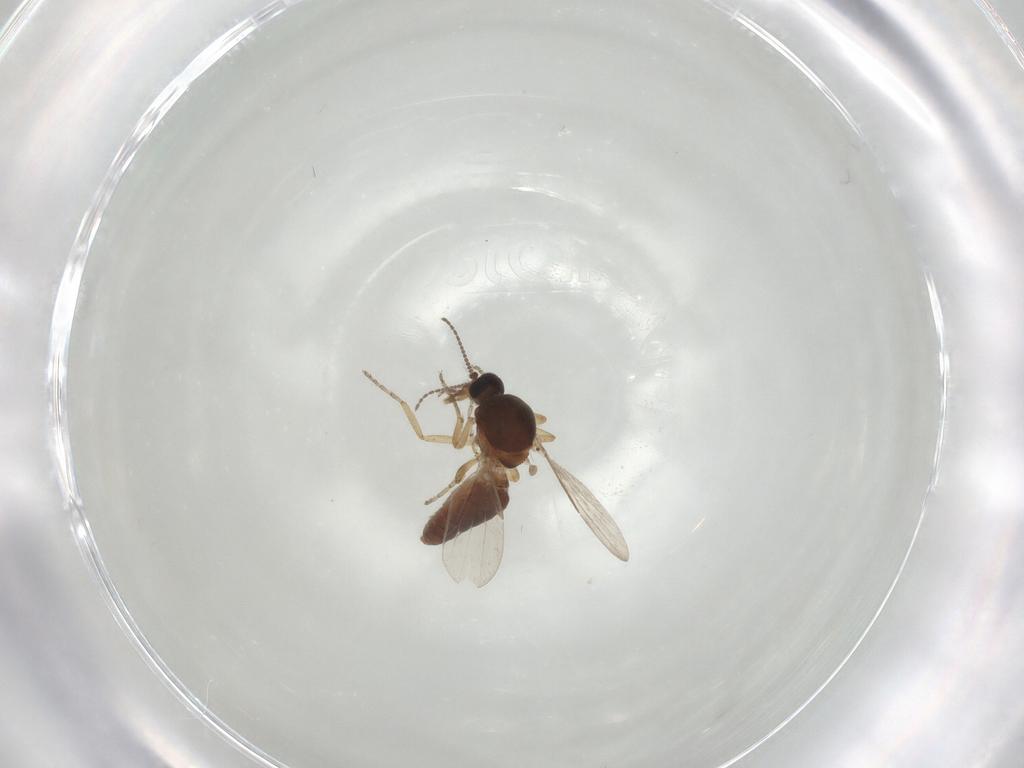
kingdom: Animalia
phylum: Arthropoda
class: Insecta
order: Diptera
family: Ceratopogonidae
